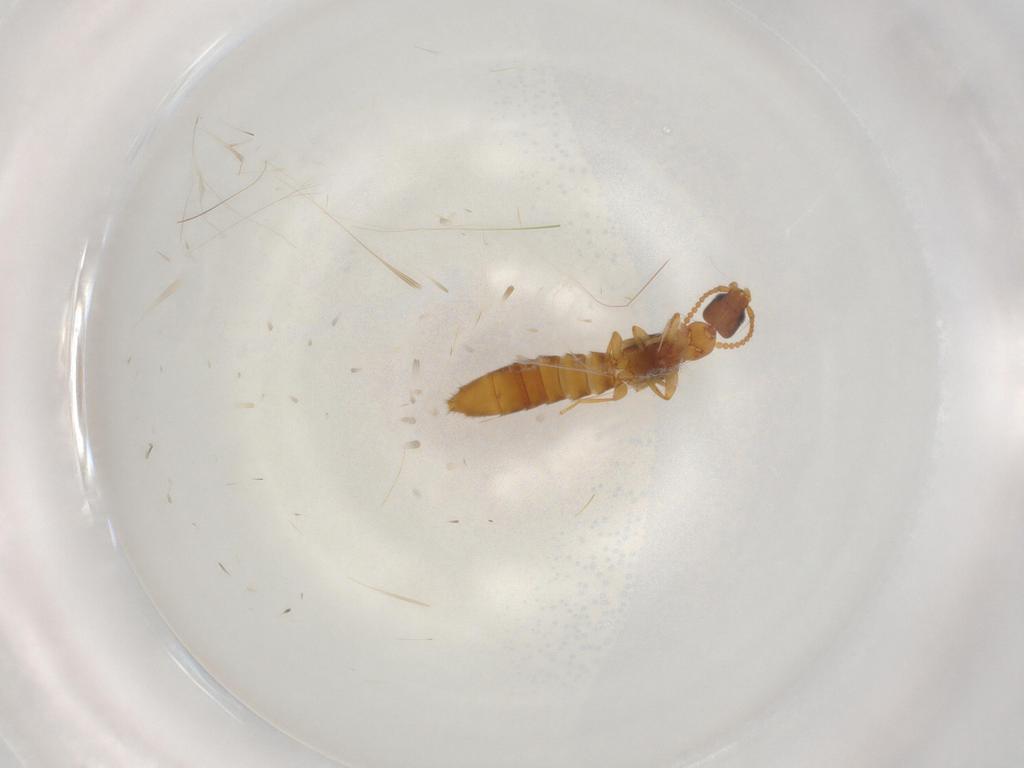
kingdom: Animalia
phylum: Arthropoda
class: Insecta
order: Coleoptera
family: Staphylinidae
